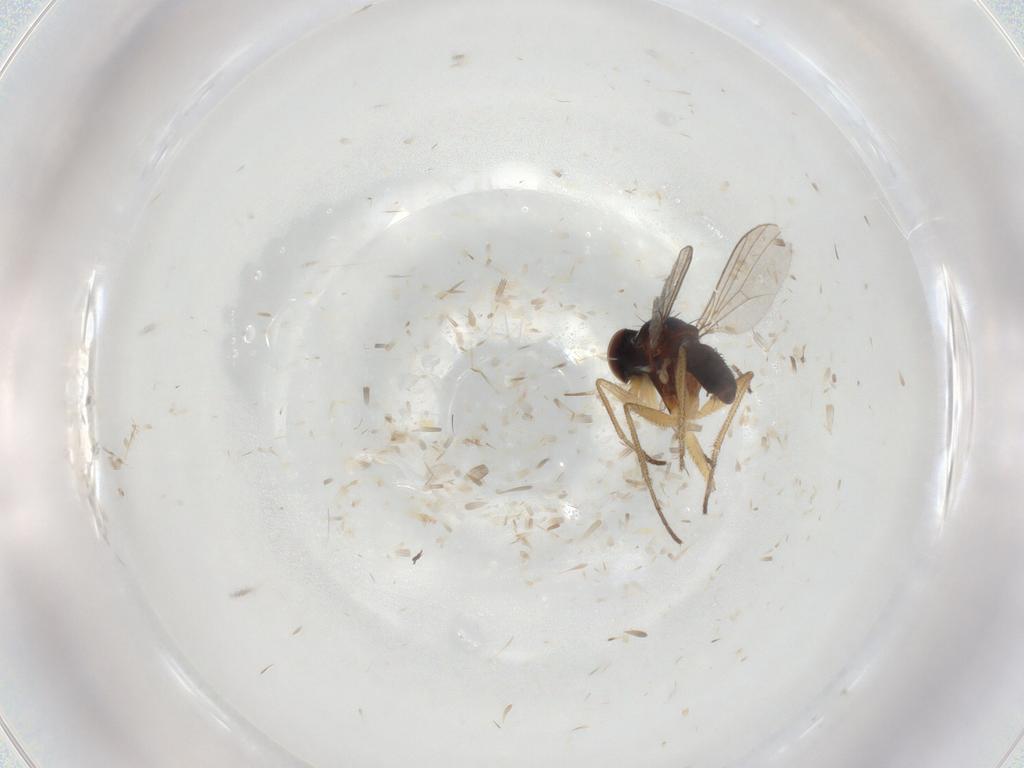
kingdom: Animalia
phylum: Arthropoda
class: Insecta
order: Diptera
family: Dolichopodidae
